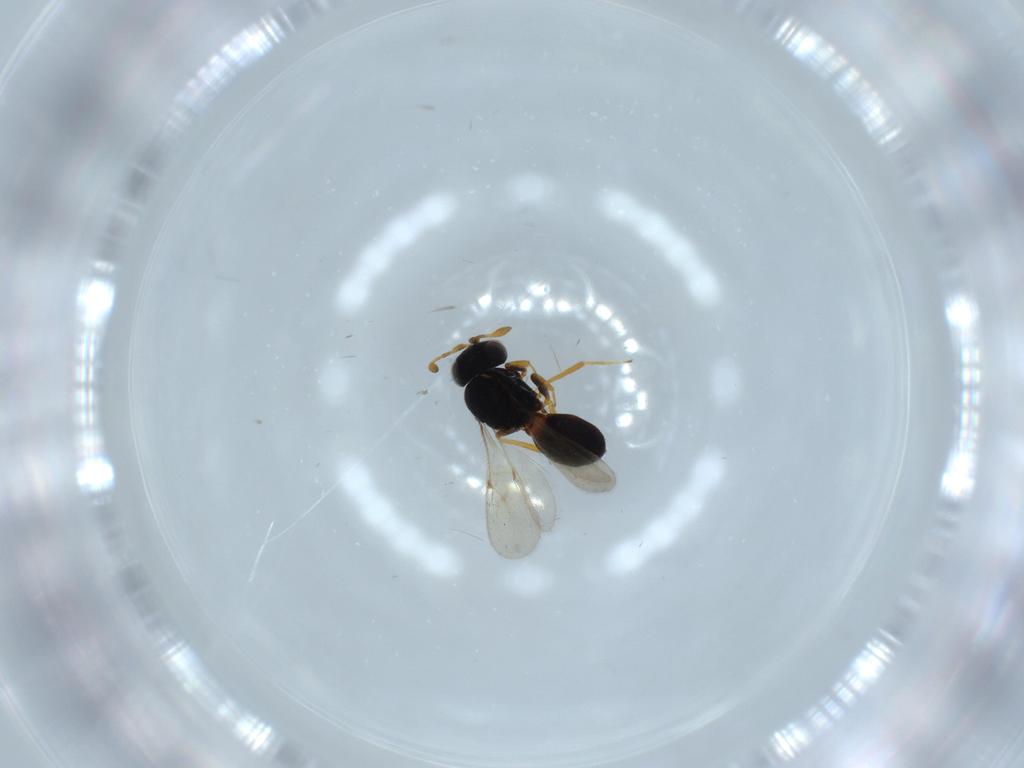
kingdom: Animalia
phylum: Arthropoda
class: Insecta
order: Hymenoptera
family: Scelionidae
